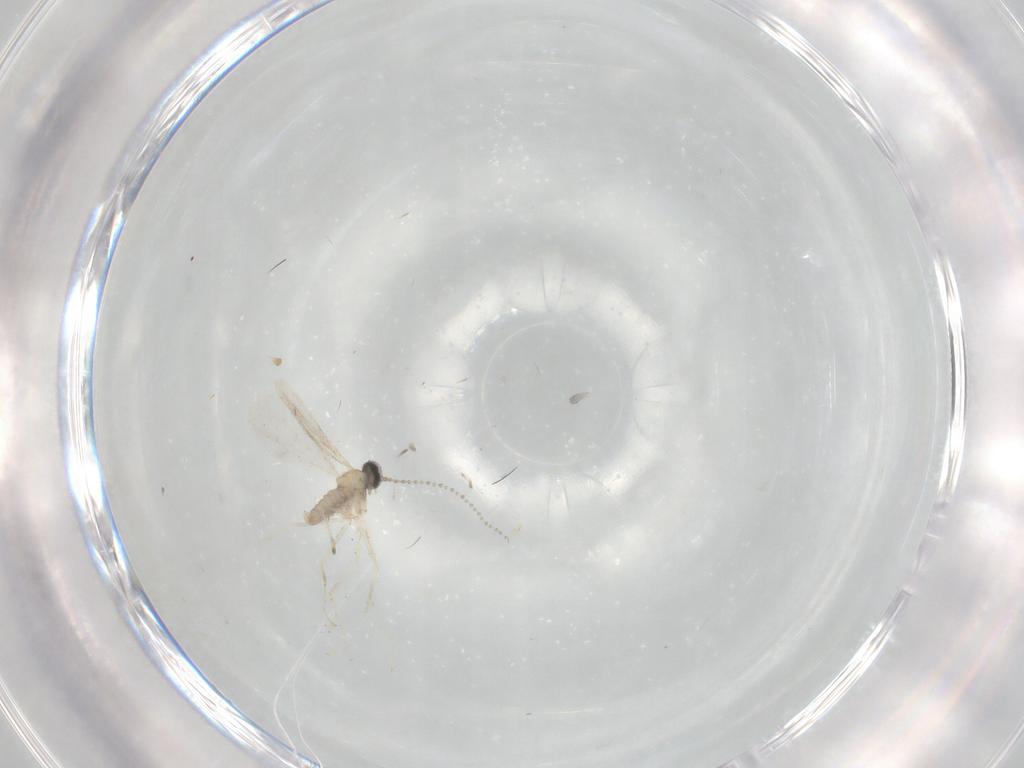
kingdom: Animalia
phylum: Arthropoda
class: Insecta
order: Diptera
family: Cecidomyiidae
